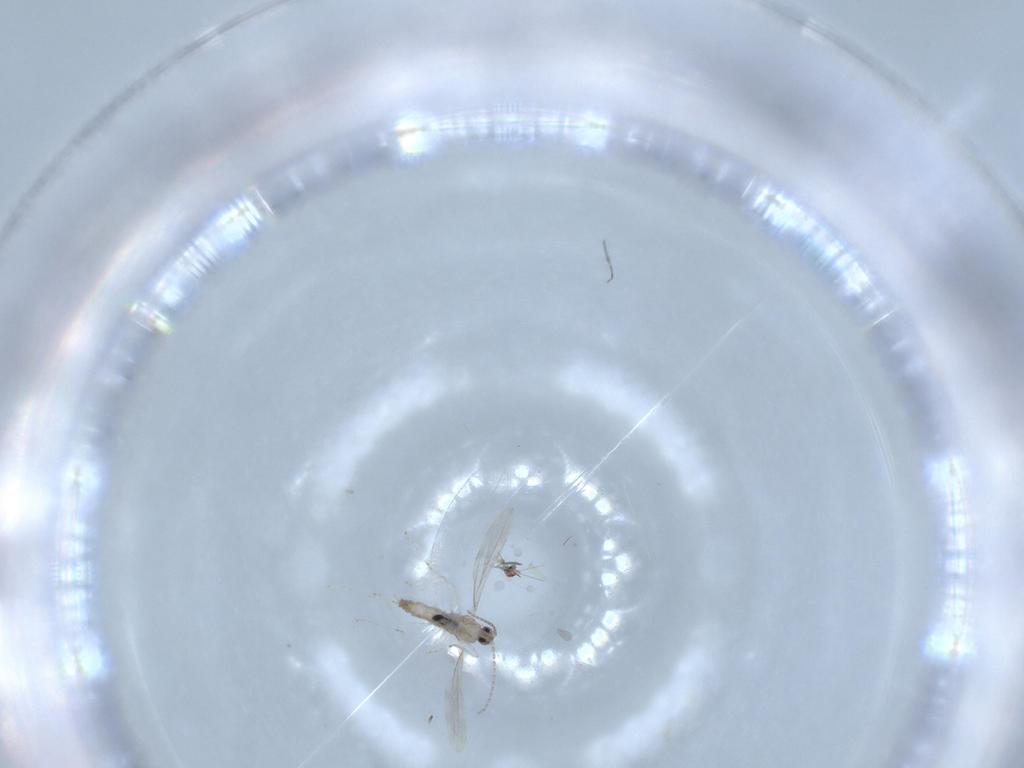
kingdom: Animalia
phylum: Arthropoda
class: Insecta
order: Diptera
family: Cecidomyiidae
